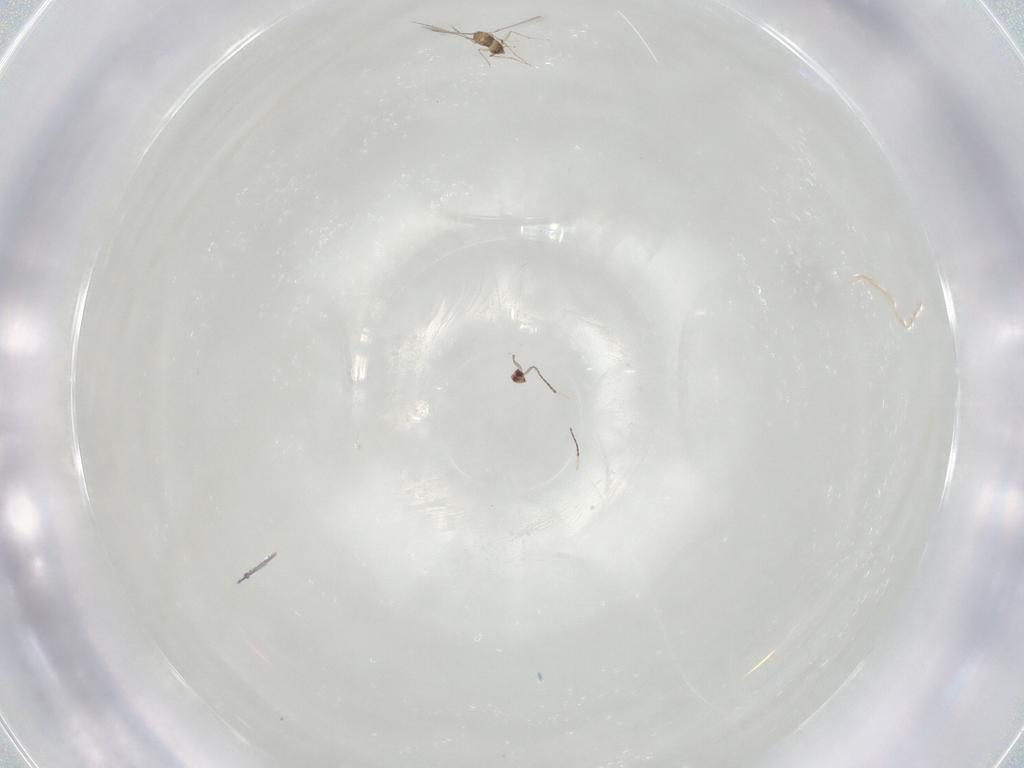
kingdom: Animalia
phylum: Arthropoda
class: Insecta
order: Hymenoptera
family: Mymaridae
